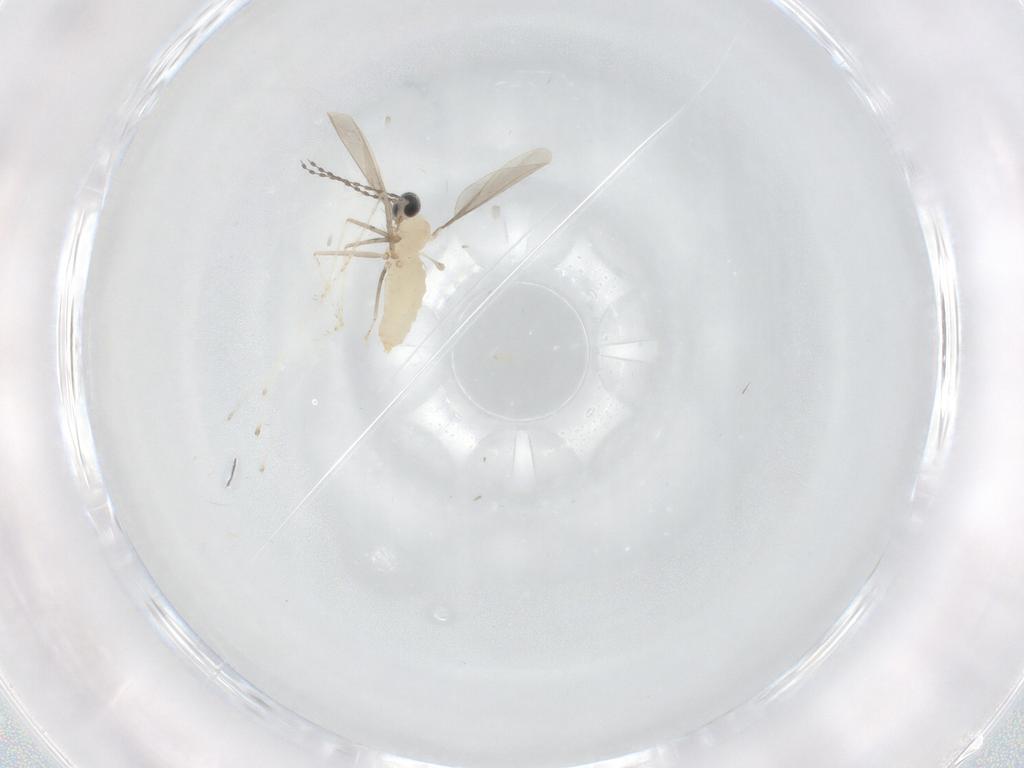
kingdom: Animalia
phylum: Arthropoda
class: Insecta
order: Diptera
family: Cecidomyiidae
